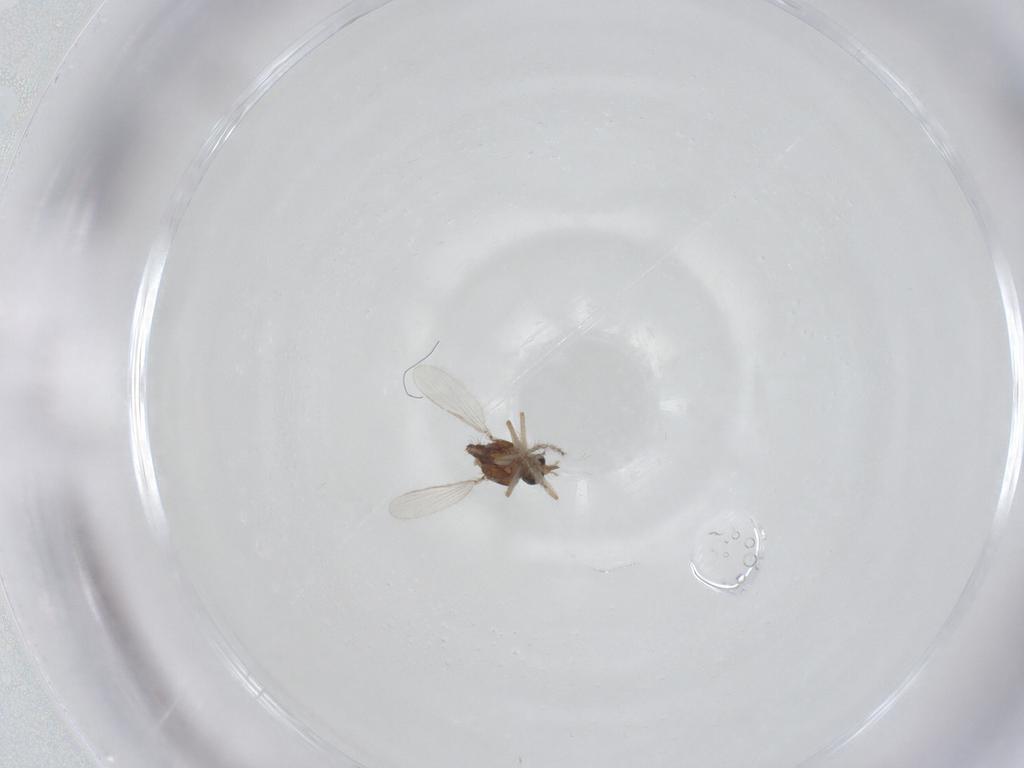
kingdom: Animalia
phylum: Arthropoda
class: Insecta
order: Diptera
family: Ceratopogonidae
